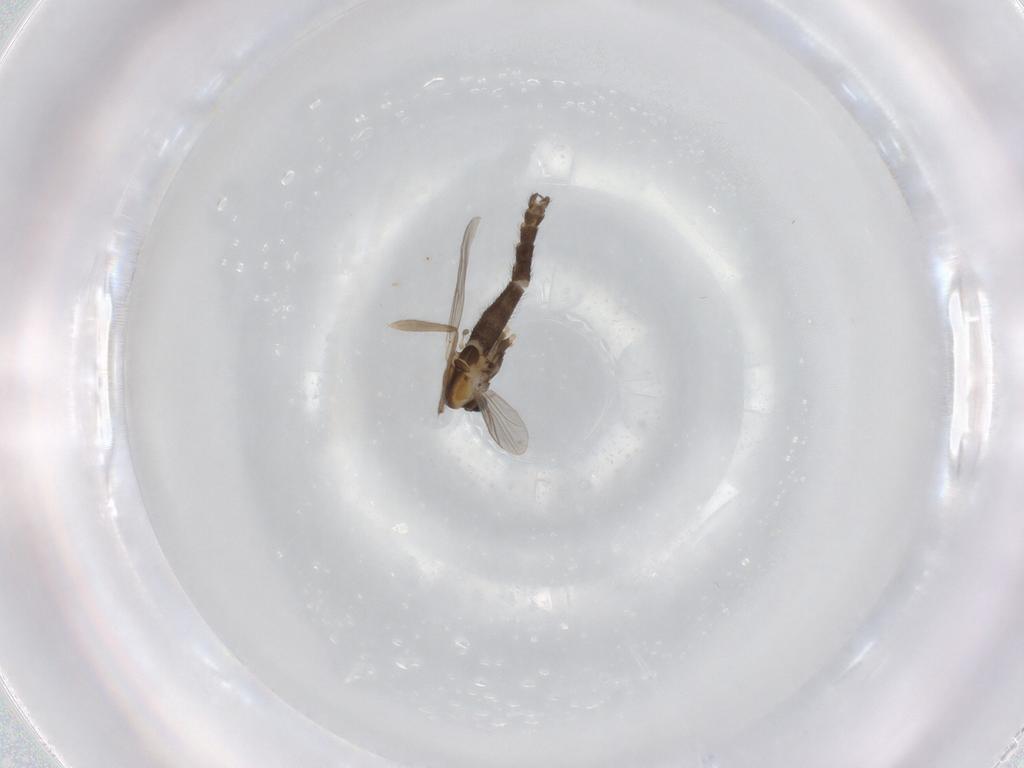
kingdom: Animalia
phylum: Arthropoda
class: Insecta
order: Diptera
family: Chironomidae
